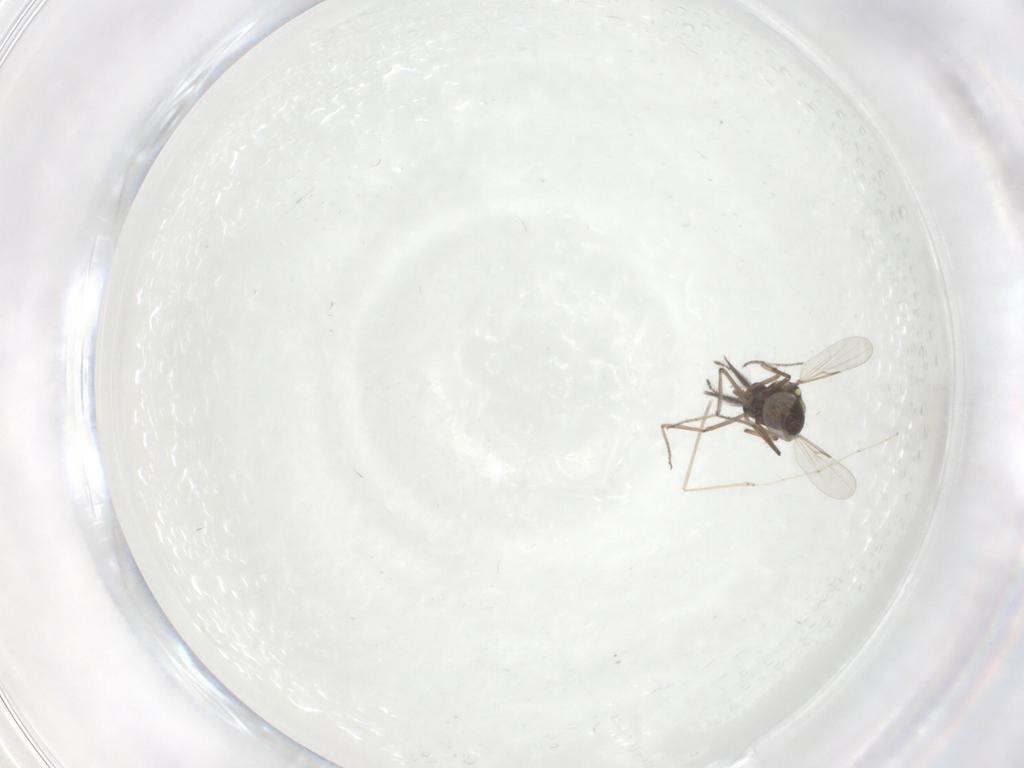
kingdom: Animalia
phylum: Arthropoda
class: Insecta
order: Diptera
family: Ceratopogonidae
